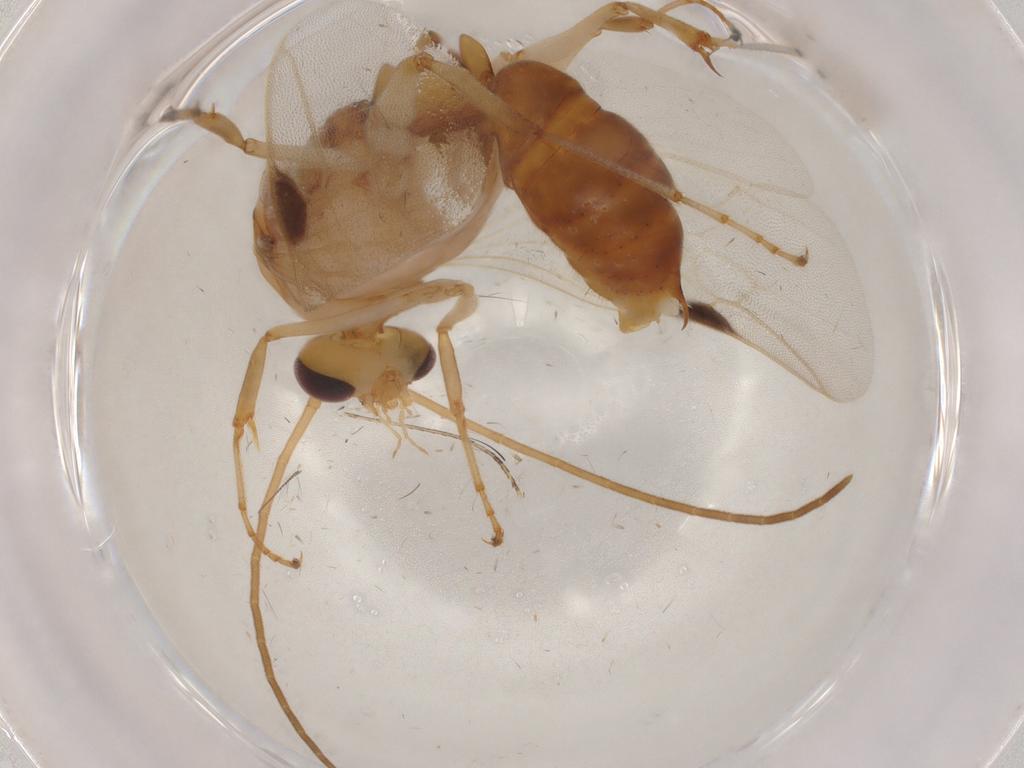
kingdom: Animalia
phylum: Arthropoda
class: Insecta
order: Hymenoptera
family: Formicidae
